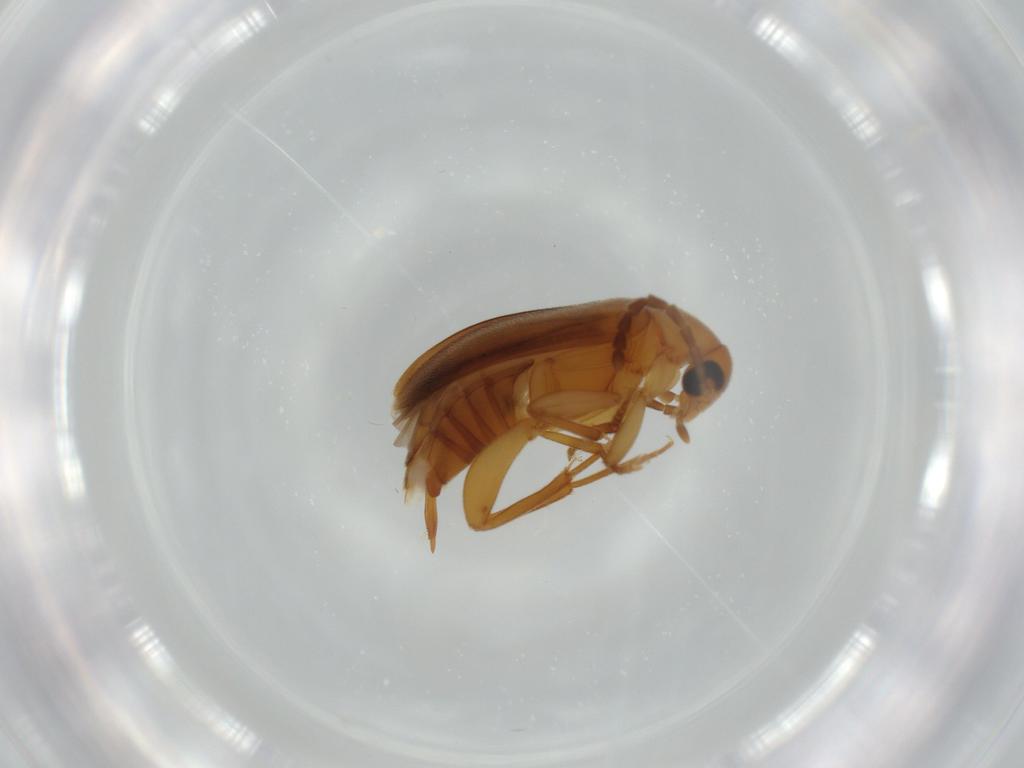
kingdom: Animalia
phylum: Arthropoda
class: Insecta
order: Coleoptera
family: Scraptiidae
